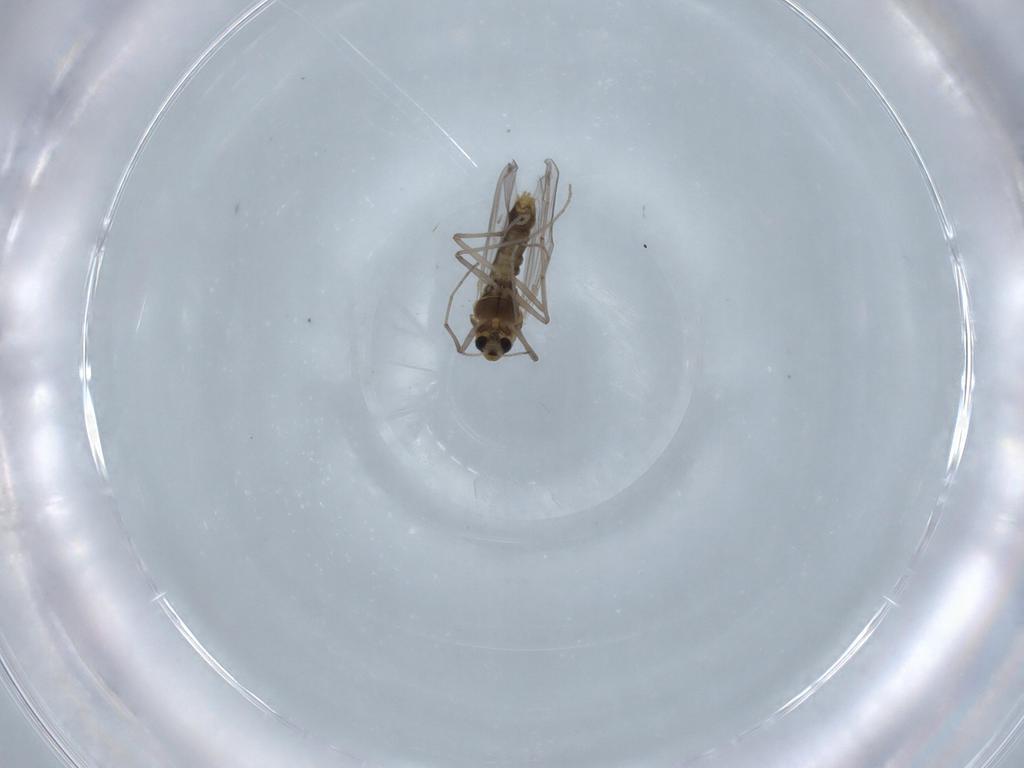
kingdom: Animalia
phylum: Arthropoda
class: Insecta
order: Diptera
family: Chironomidae
